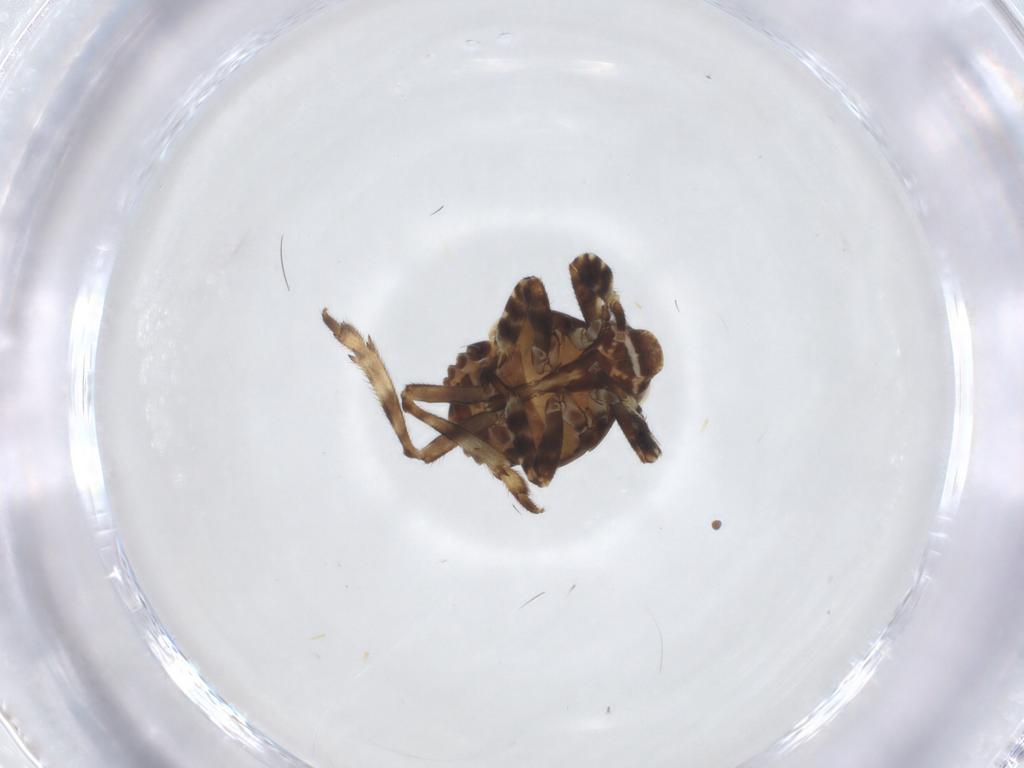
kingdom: Animalia
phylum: Arthropoda
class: Insecta
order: Hemiptera
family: Eurybrachidae
